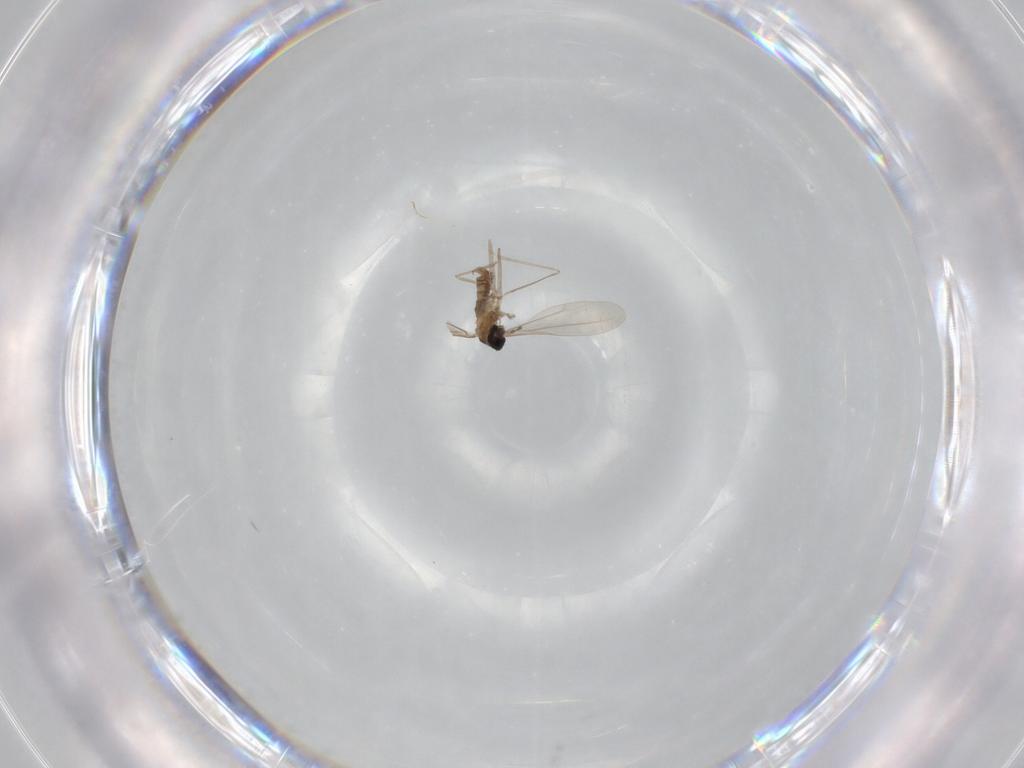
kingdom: Animalia
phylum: Arthropoda
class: Insecta
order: Diptera
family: Cecidomyiidae
